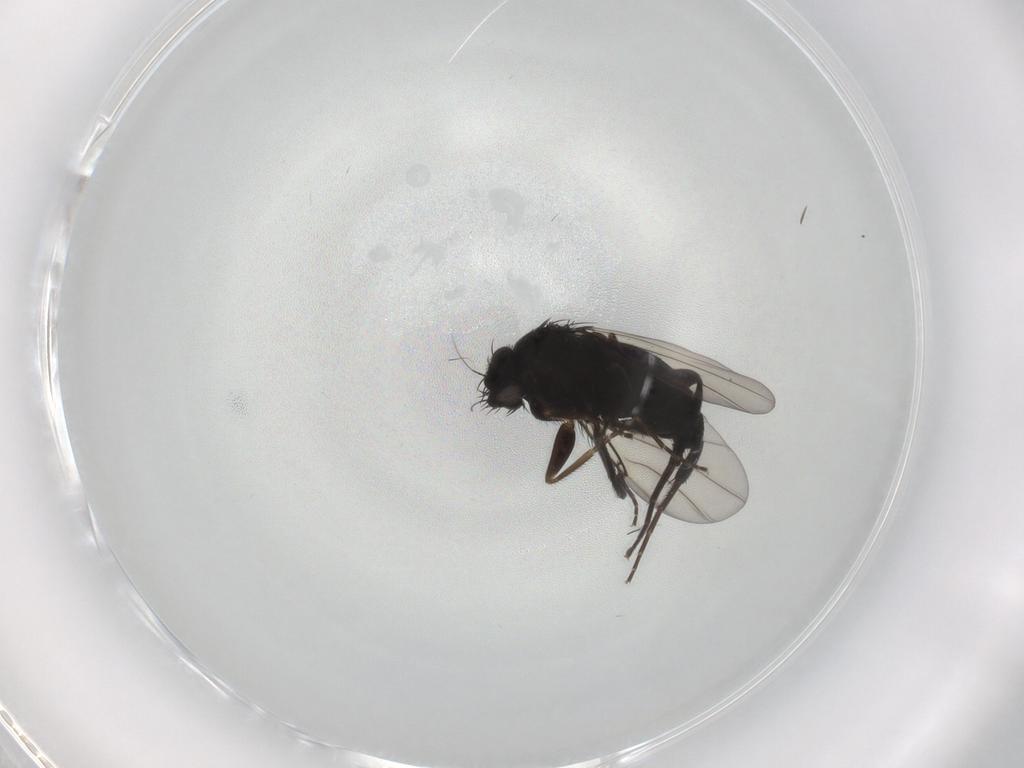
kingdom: Animalia
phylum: Arthropoda
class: Insecta
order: Diptera
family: Phoridae
